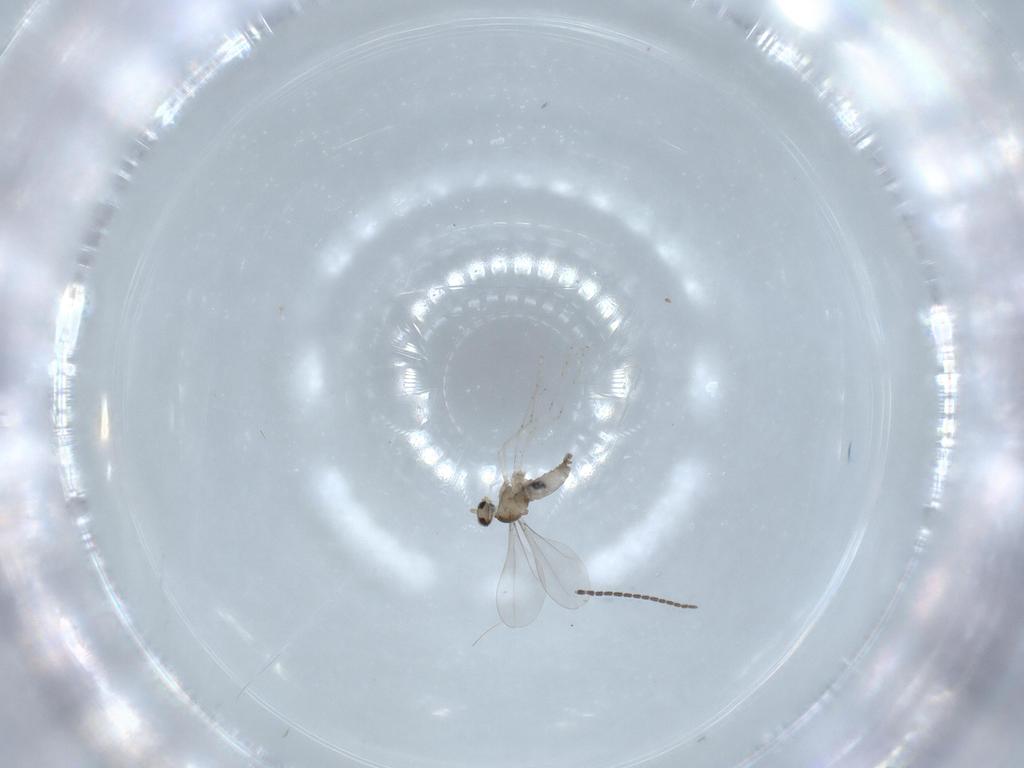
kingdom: Animalia
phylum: Arthropoda
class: Insecta
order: Diptera
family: Cecidomyiidae
